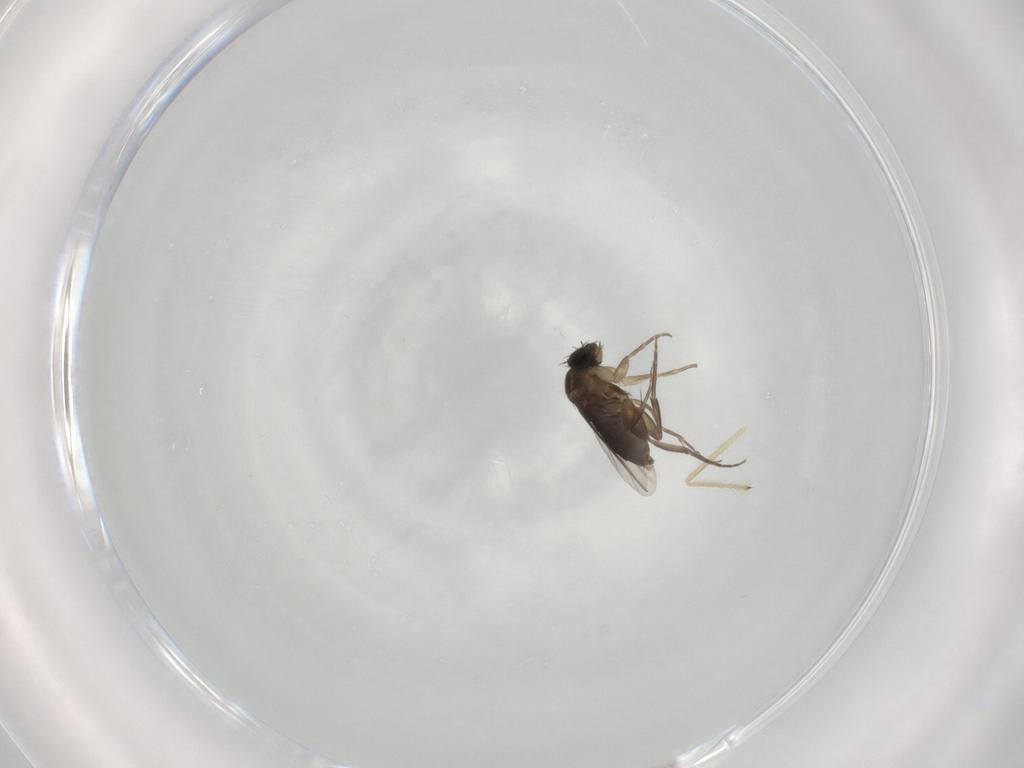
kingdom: Animalia
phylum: Arthropoda
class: Insecta
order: Diptera
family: Phoridae
